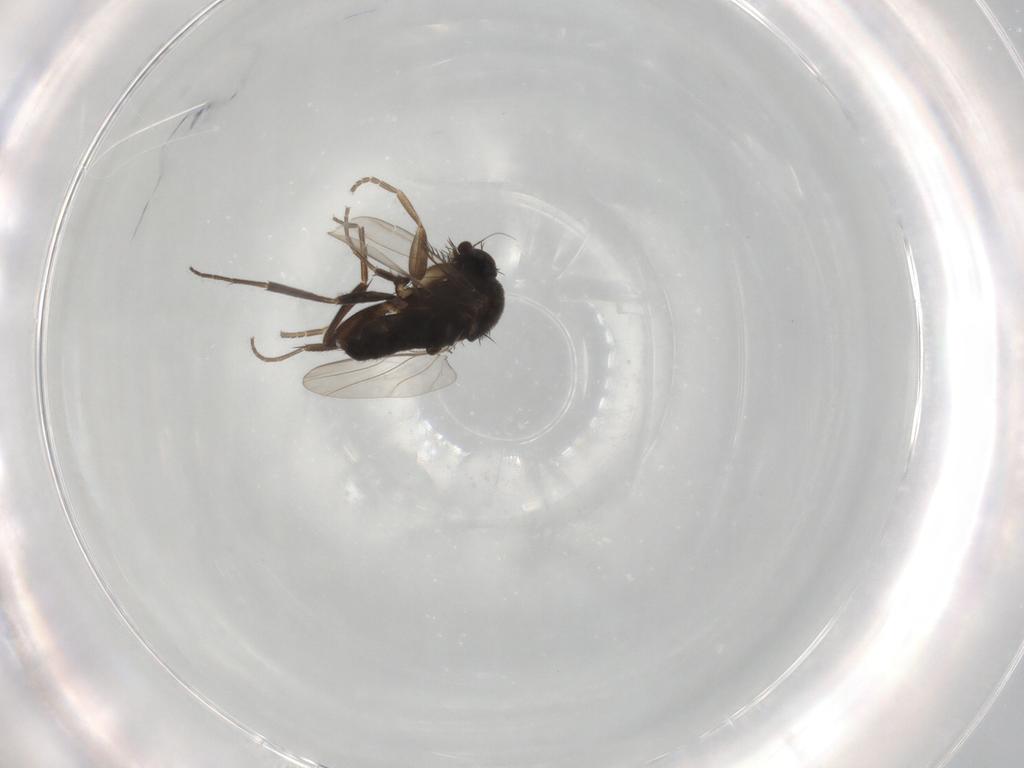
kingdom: Animalia
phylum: Arthropoda
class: Insecta
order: Diptera
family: Phoridae
